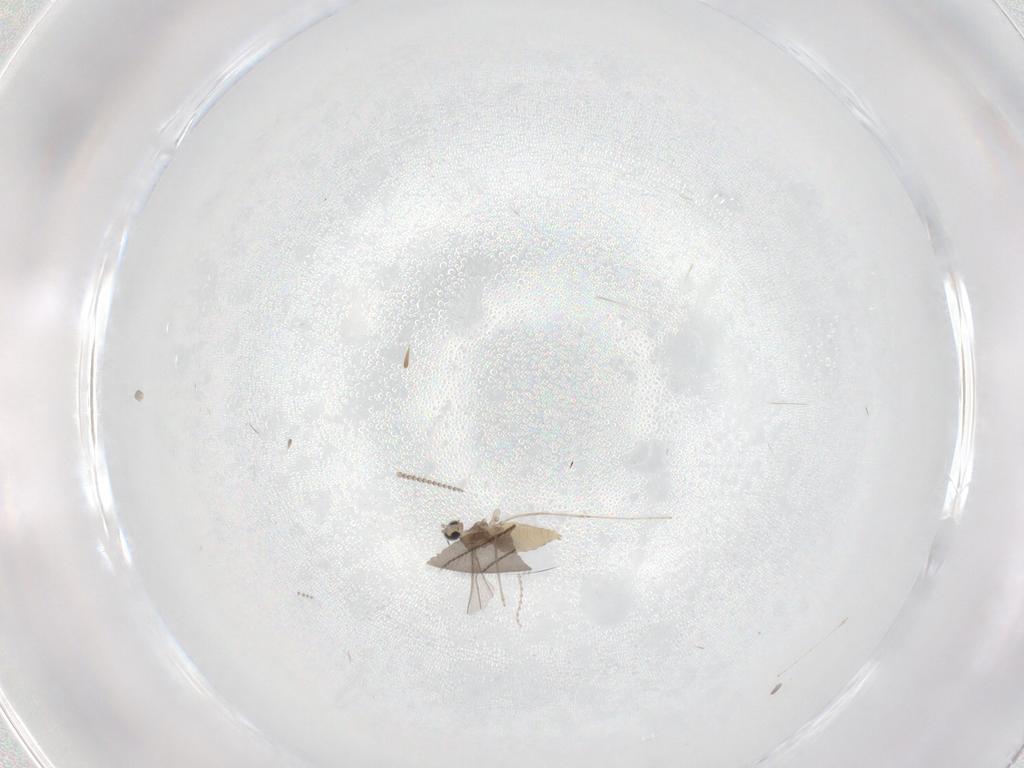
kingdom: Animalia
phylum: Arthropoda
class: Insecta
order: Diptera
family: Cecidomyiidae
